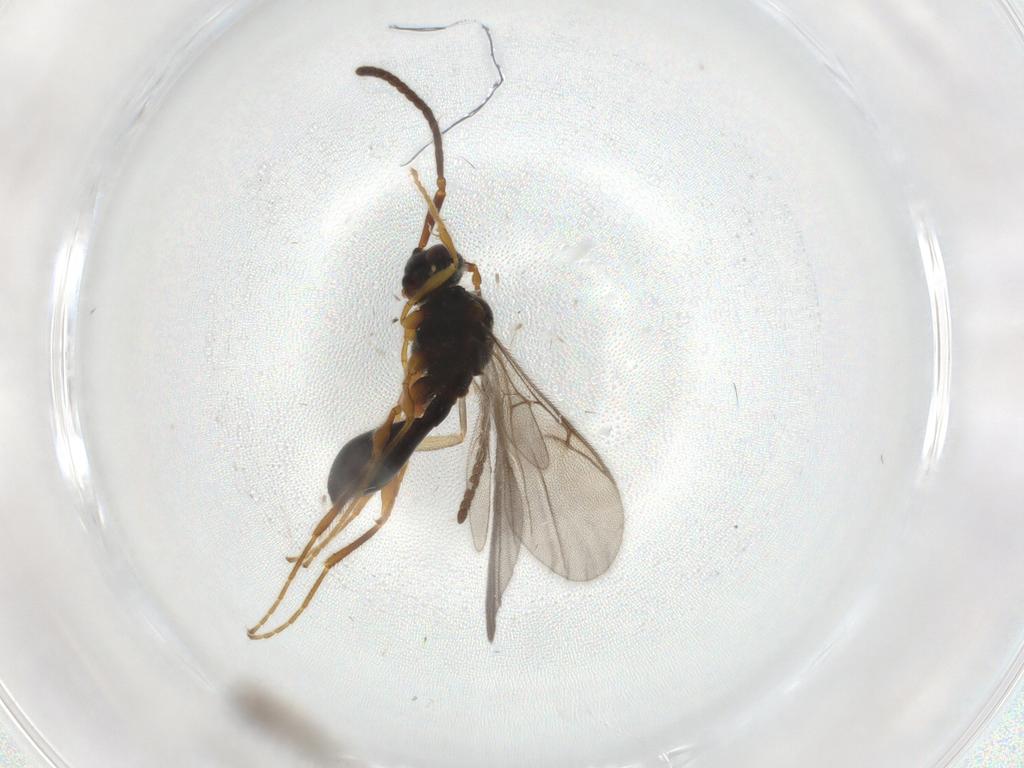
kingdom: Animalia
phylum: Arthropoda
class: Insecta
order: Hymenoptera
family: Dryinidae
